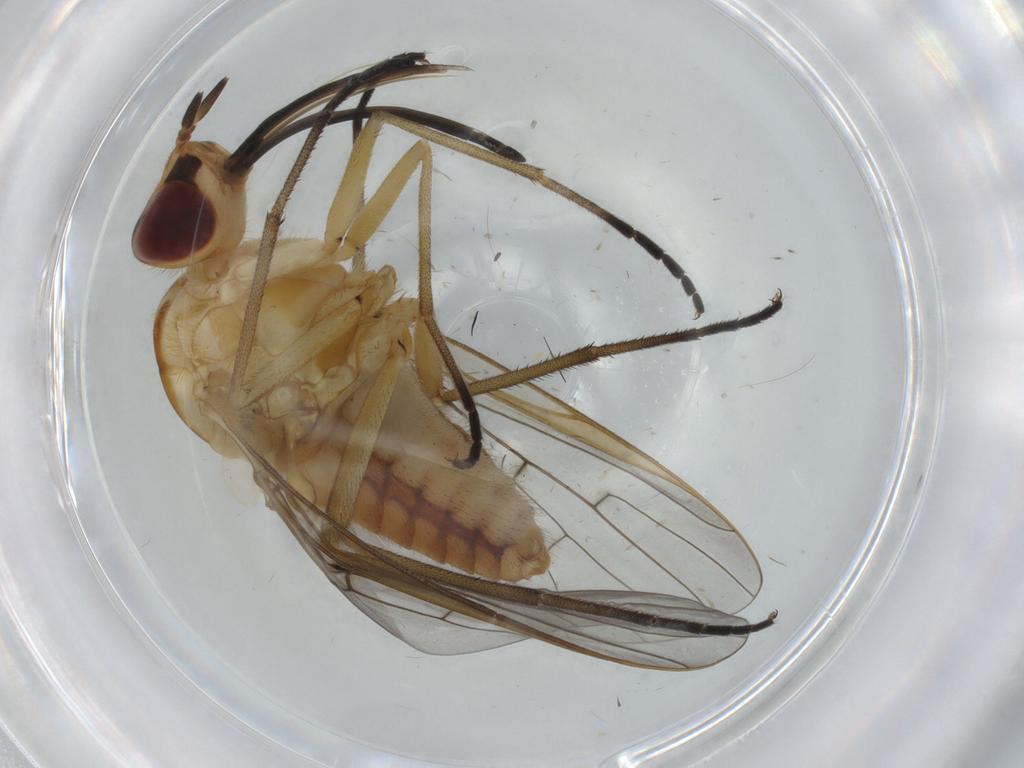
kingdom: Animalia
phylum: Arthropoda
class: Insecta
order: Diptera
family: Bombyliidae
